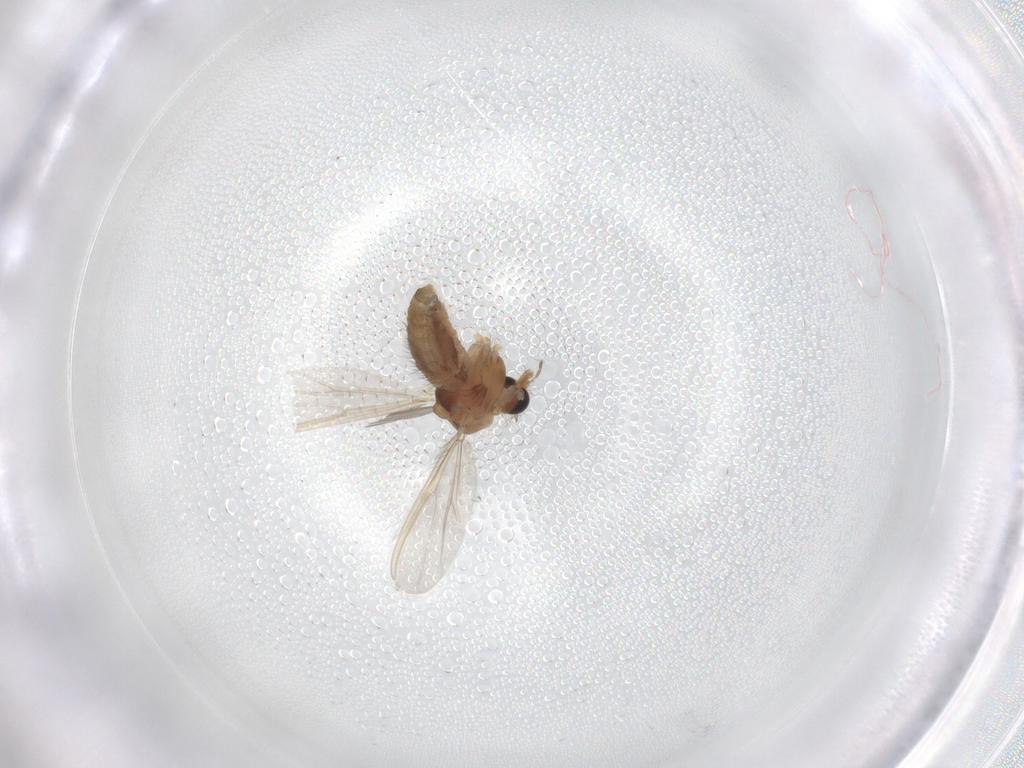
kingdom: Animalia
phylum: Arthropoda
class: Insecta
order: Diptera
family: Chironomidae
